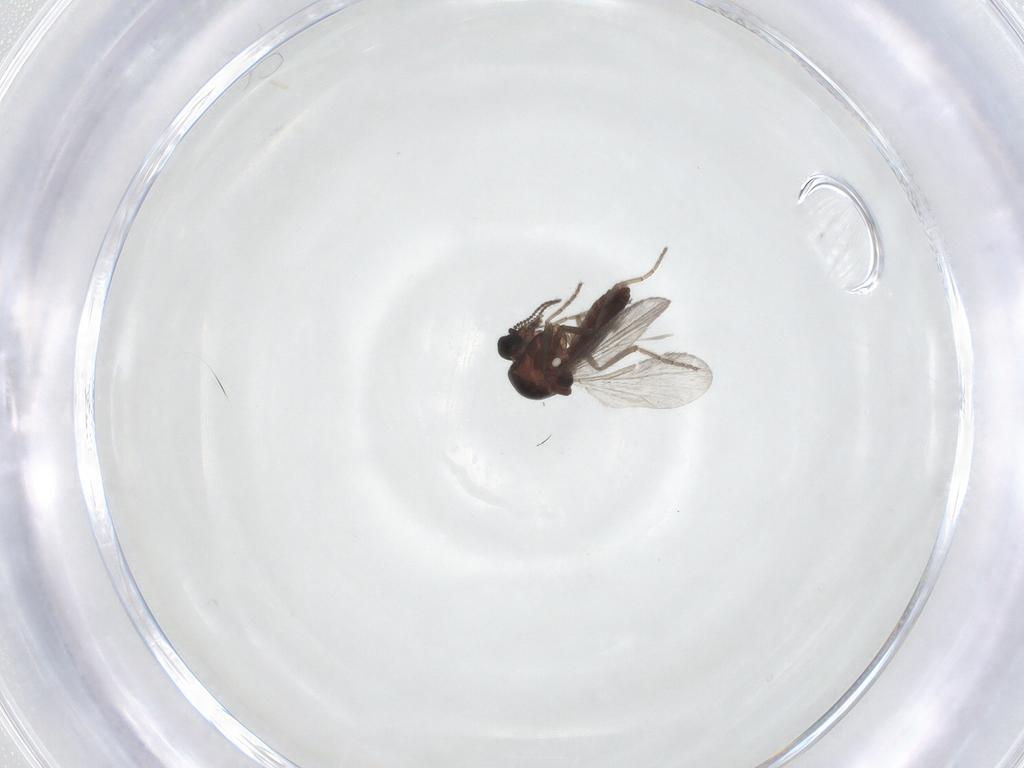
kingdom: Animalia
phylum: Arthropoda
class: Insecta
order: Diptera
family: Ceratopogonidae
